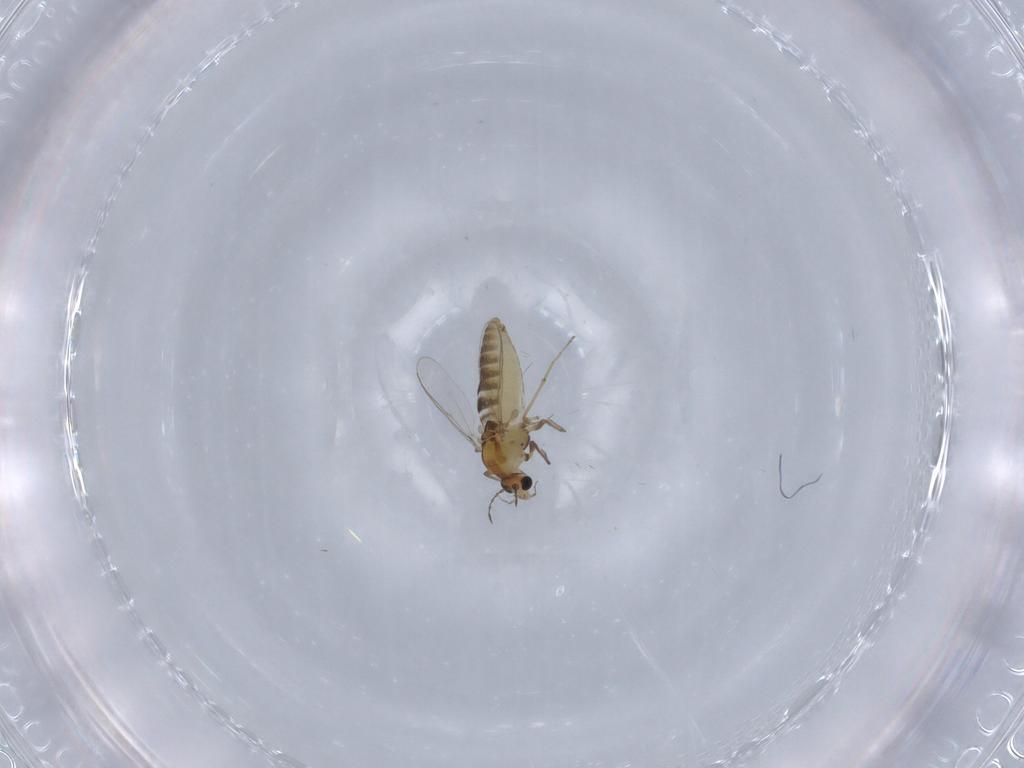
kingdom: Animalia
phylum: Arthropoda
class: Insecta
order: Diptera
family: Chironomidae
